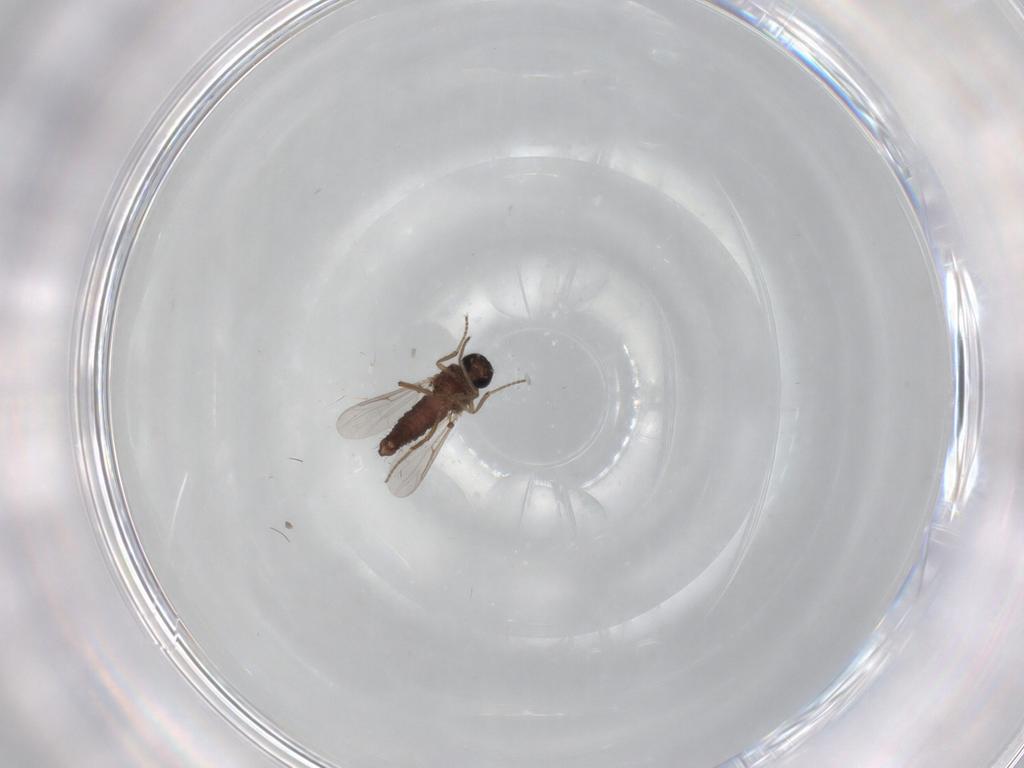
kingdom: Animalia
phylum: Arthropoda
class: Insecta
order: Diptera
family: Ceratopogonidae
